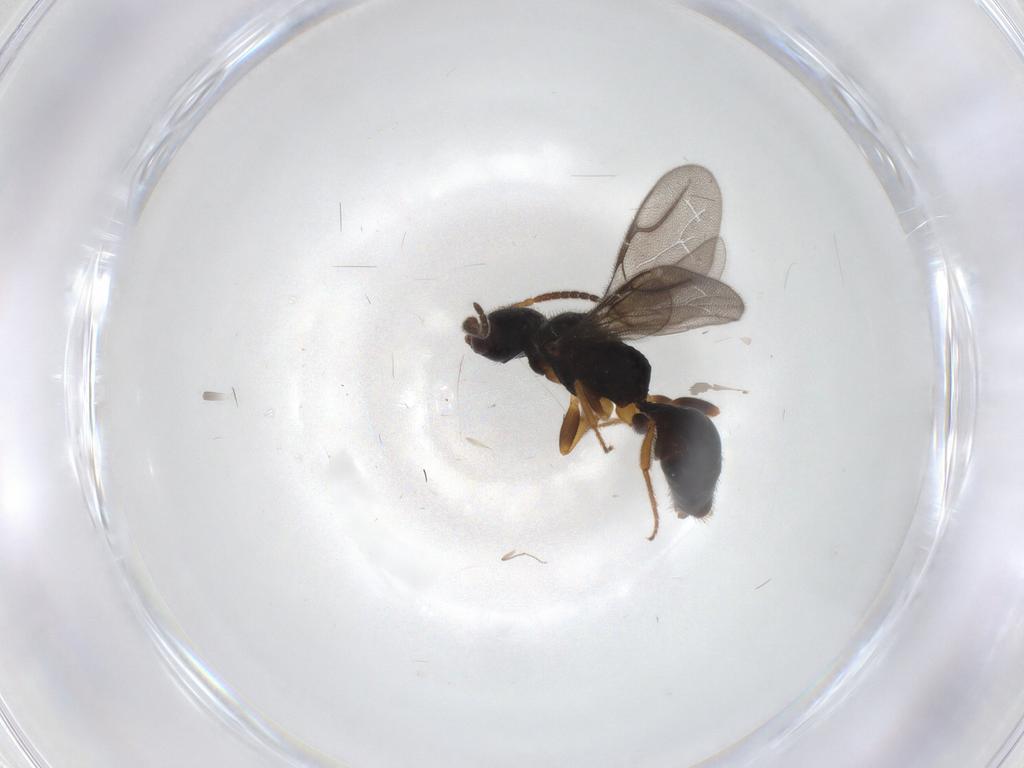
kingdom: Animalia
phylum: Arthropoda
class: Insecta
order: Hymenoptera
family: Bethylidae
